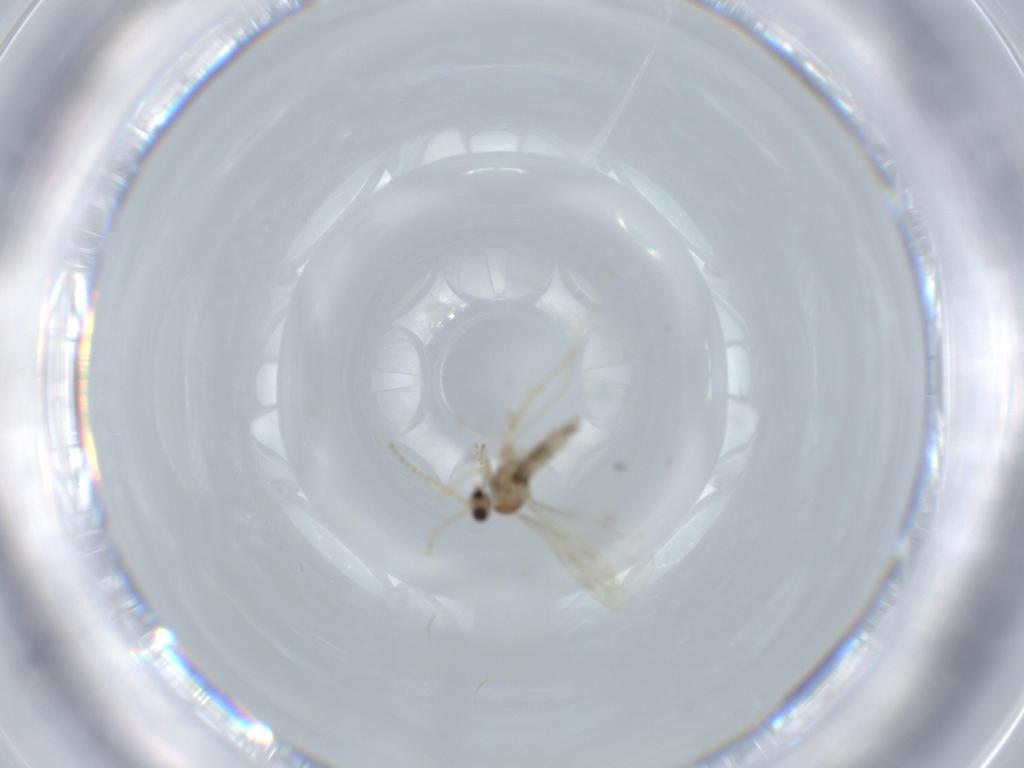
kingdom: Animalia
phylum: Arthropoda
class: Insecta
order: Diptera
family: Cecidomyiidae
